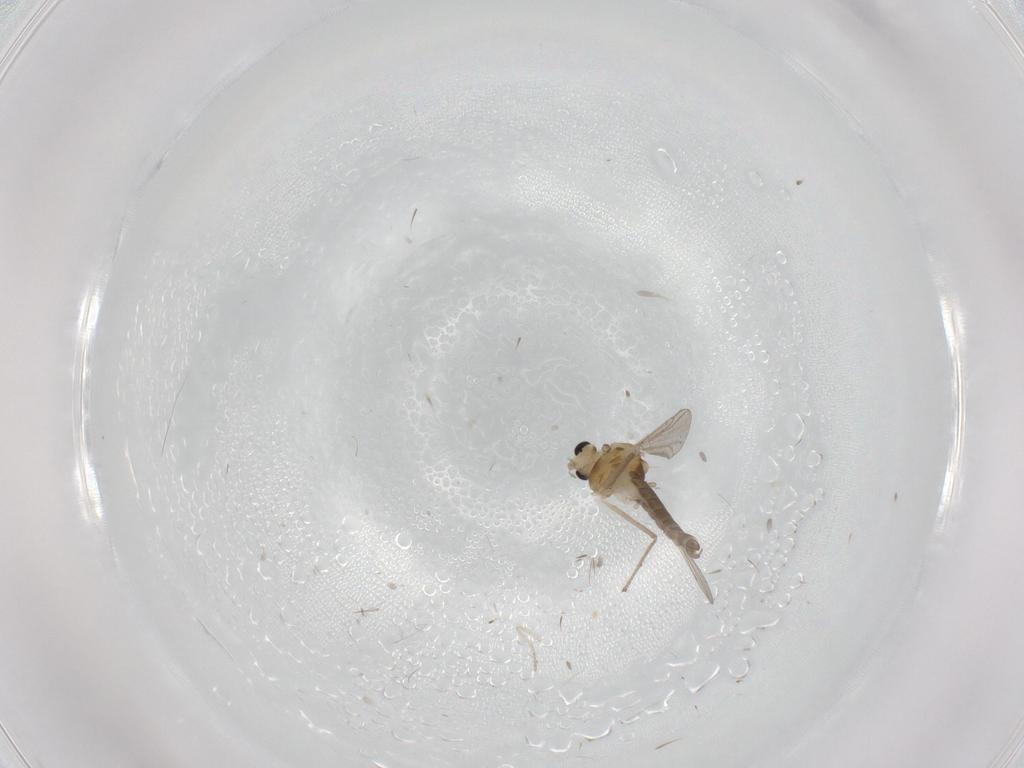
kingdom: Animalia
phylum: Arthropoda
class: Insecta
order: Diptera
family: Chironomidae
